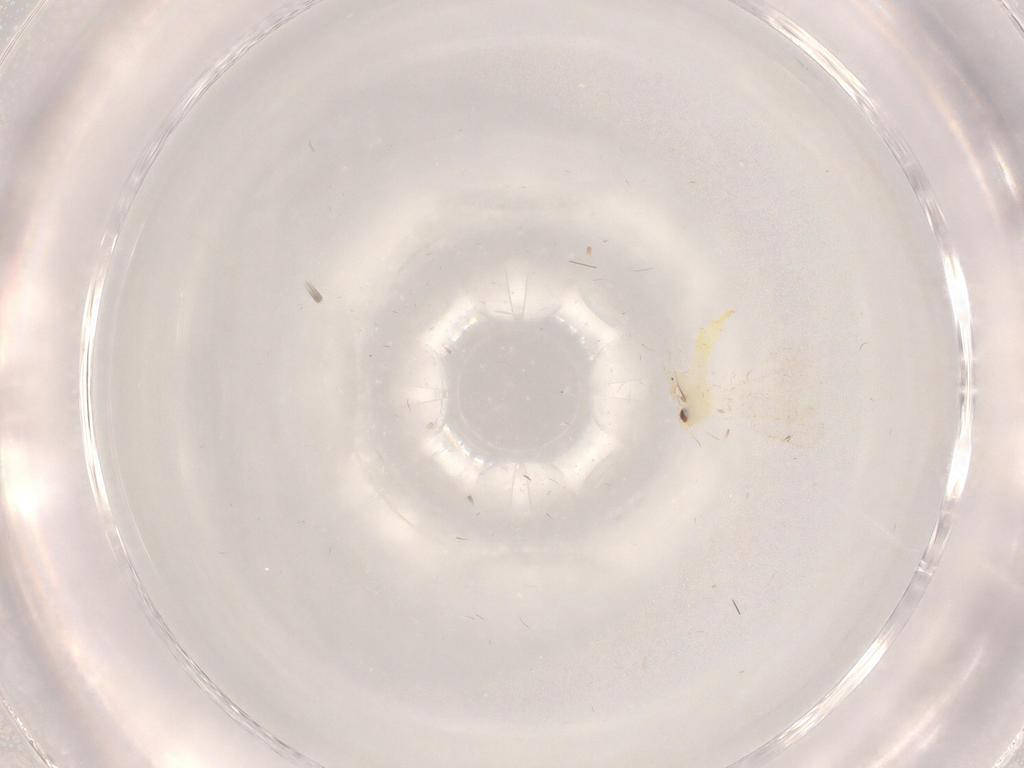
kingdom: Animalia
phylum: Arthropoda
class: Insecta
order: Hemiptera
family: Aleyrodidae
